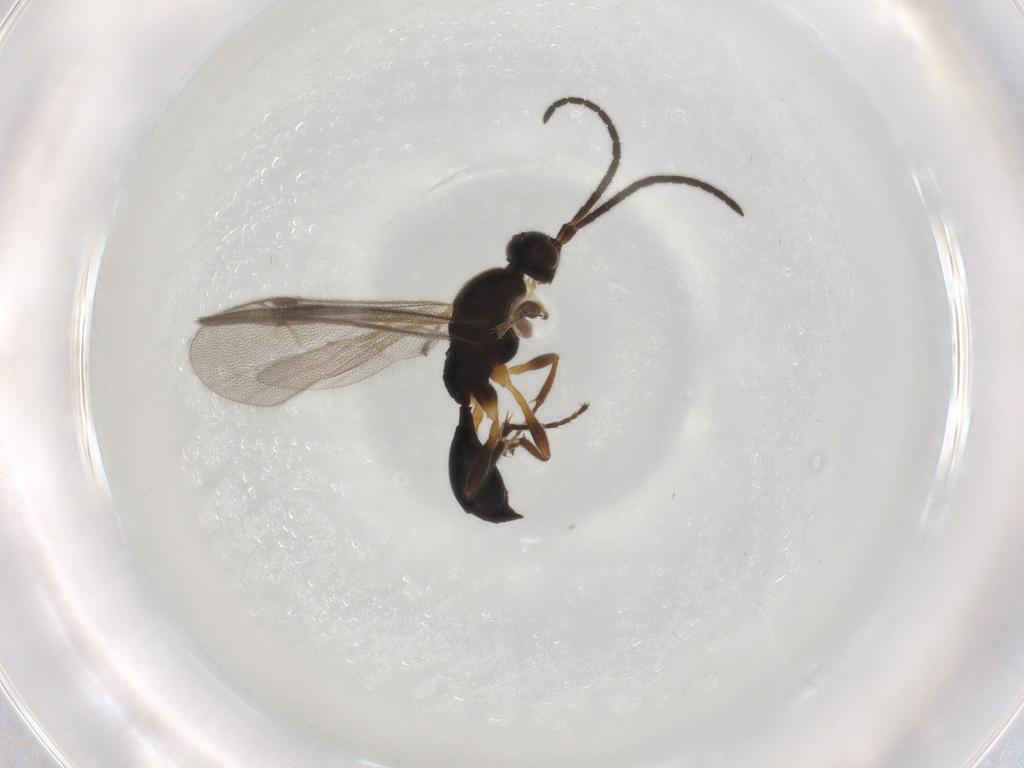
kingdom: Animalia
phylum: Arthropoda
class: Insecta
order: Hymenoptera
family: Proctotrupidae
